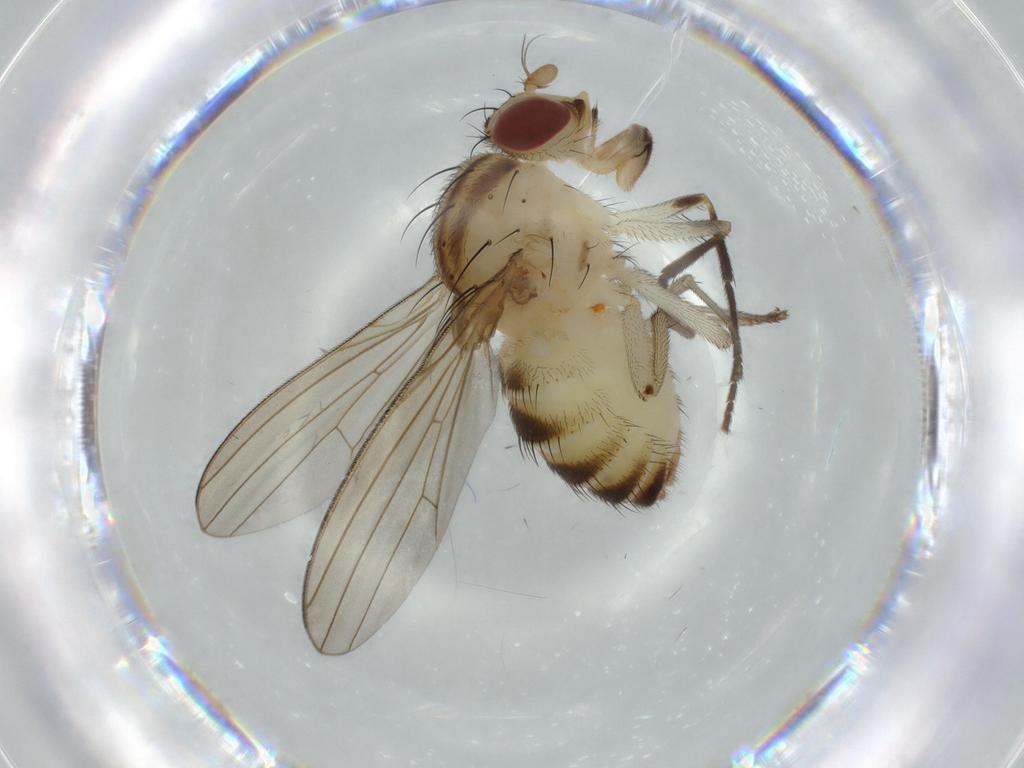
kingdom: Animalia
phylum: Arthropoda
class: Insecta
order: Diptera
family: Lauxaniidae
